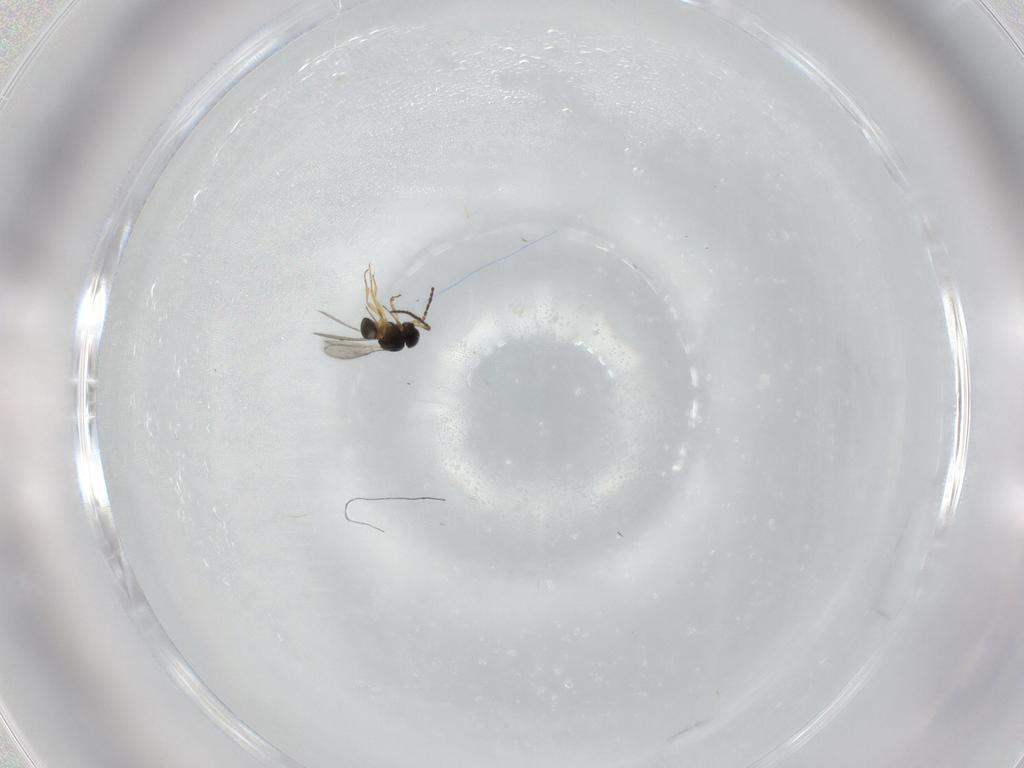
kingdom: Animalia
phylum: Arthropoda
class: Insecta
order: Hymenoptera
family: Scelionidae
